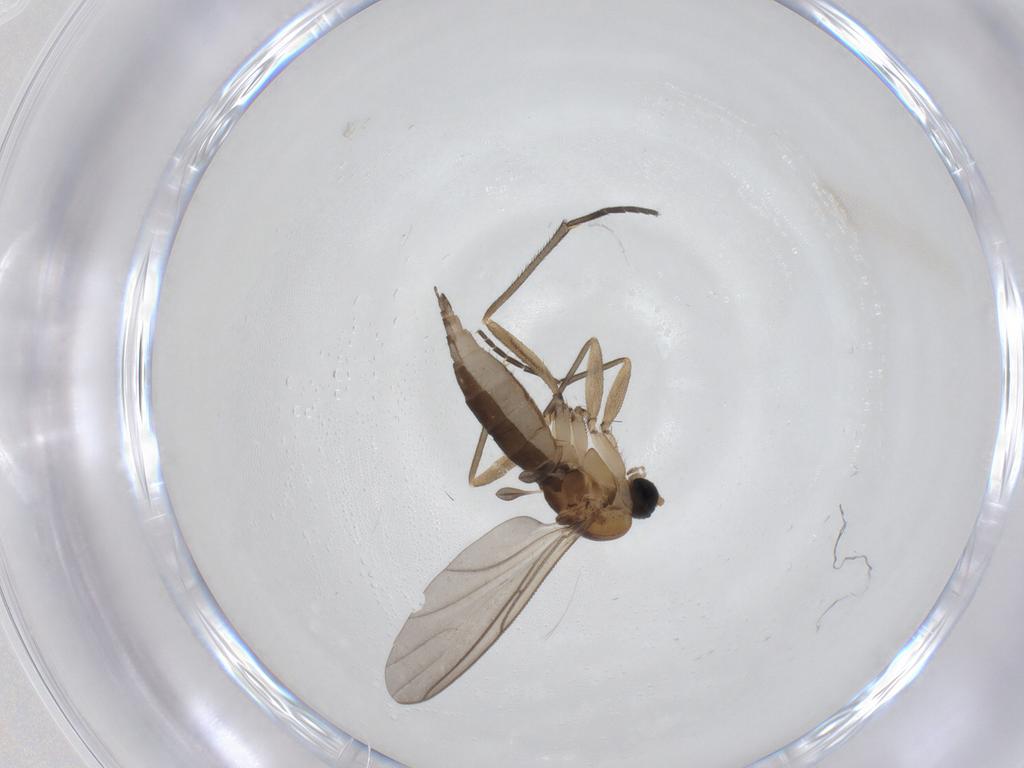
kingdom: Animalia
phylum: Arthropoda
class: Insecta
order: Diptera
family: Sciaridae
